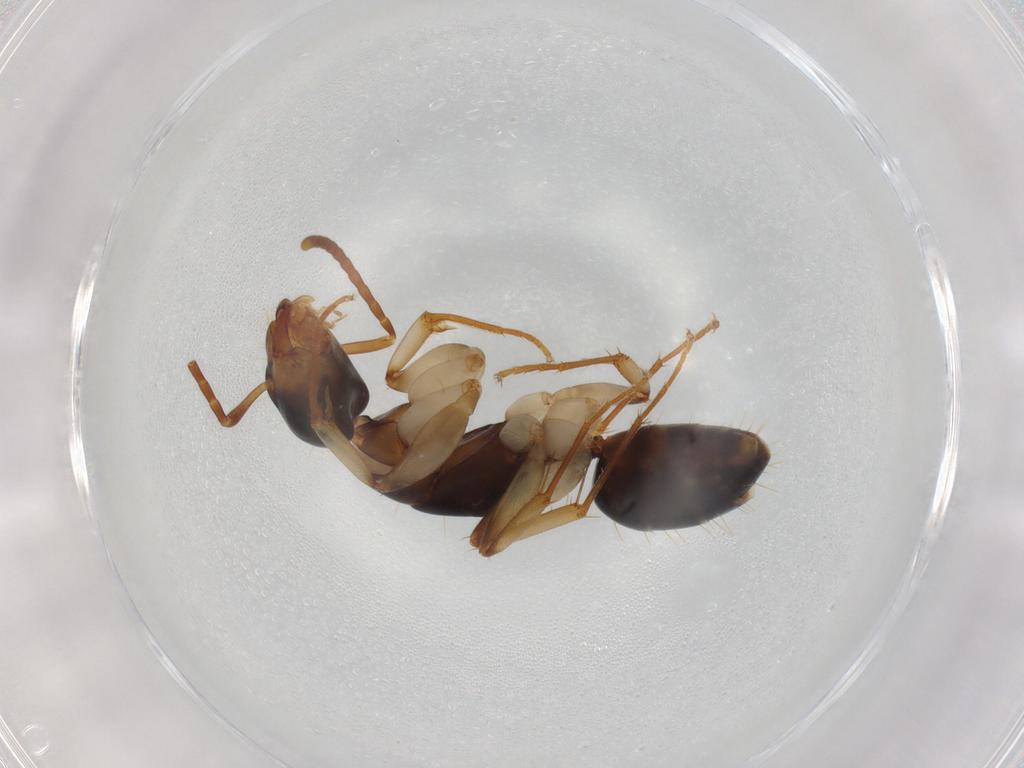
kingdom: Animalia
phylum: Arthropoda
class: Insecta
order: Hymenoptera
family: Formicidae
